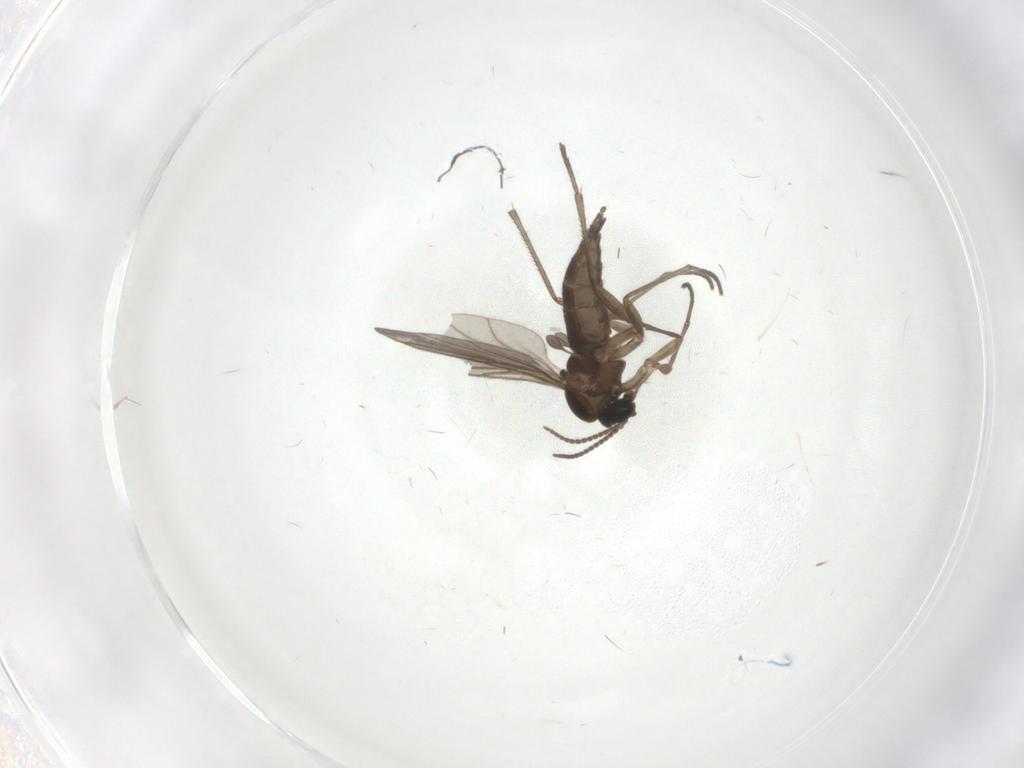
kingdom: Animalia
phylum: Arthropoda
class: Insecta
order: Diptera
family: Sciaridae
